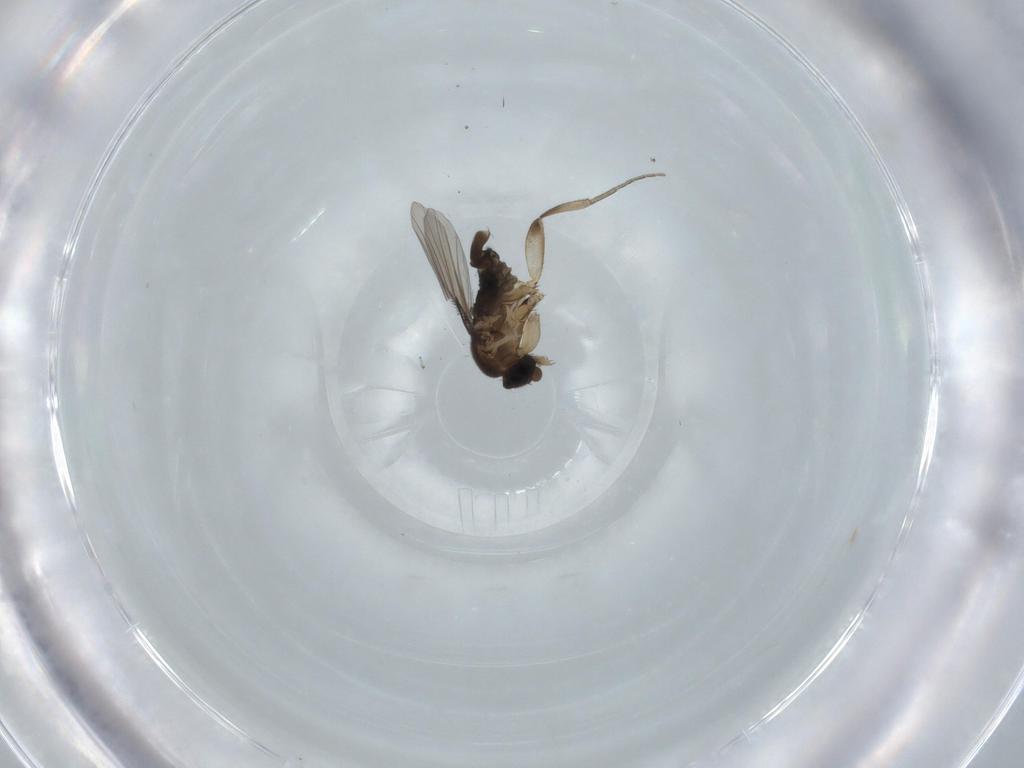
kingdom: Animalia
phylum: Arthropoda
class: Insecta
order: Diptera
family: Phoridae
